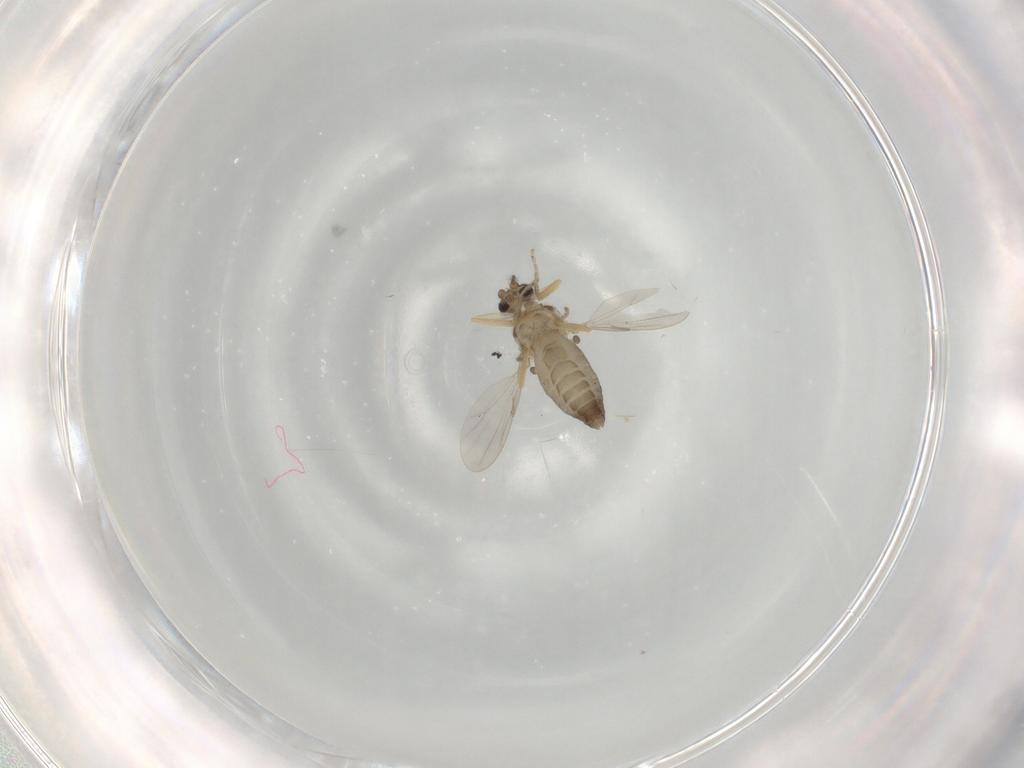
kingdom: Animalia
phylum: Arthropoda
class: Insecta
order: Diptera
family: Ceratopogonidae
